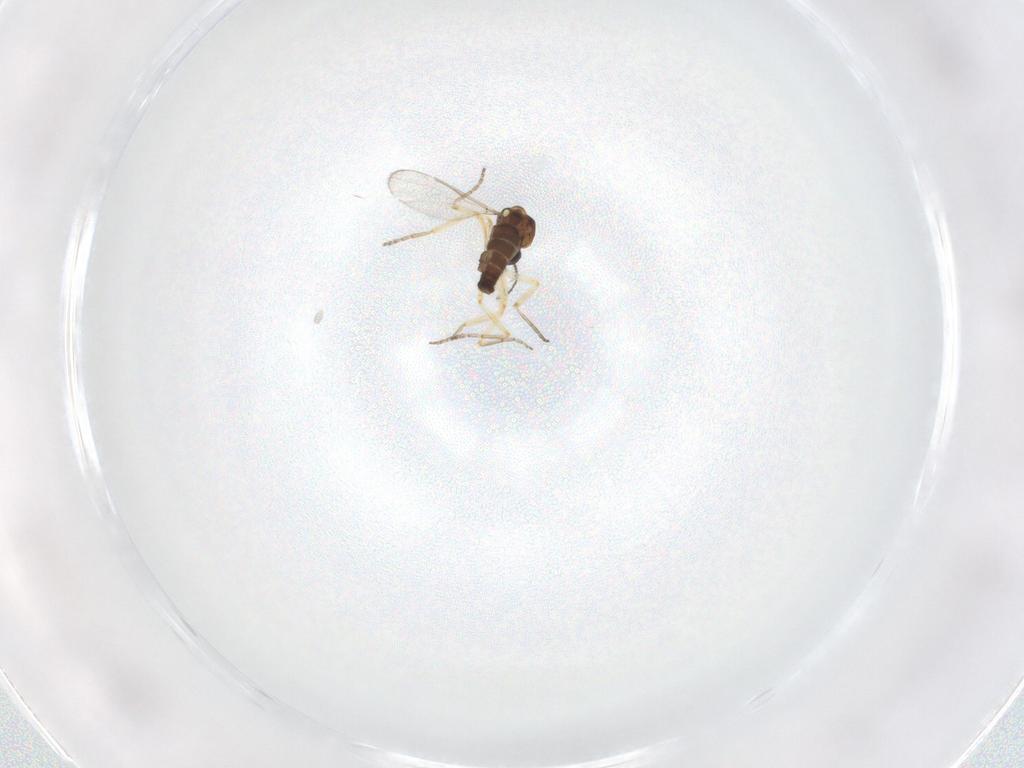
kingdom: Animalia
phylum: Arthropoda
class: Insecta
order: Diptera
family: Ceratopogonidae
